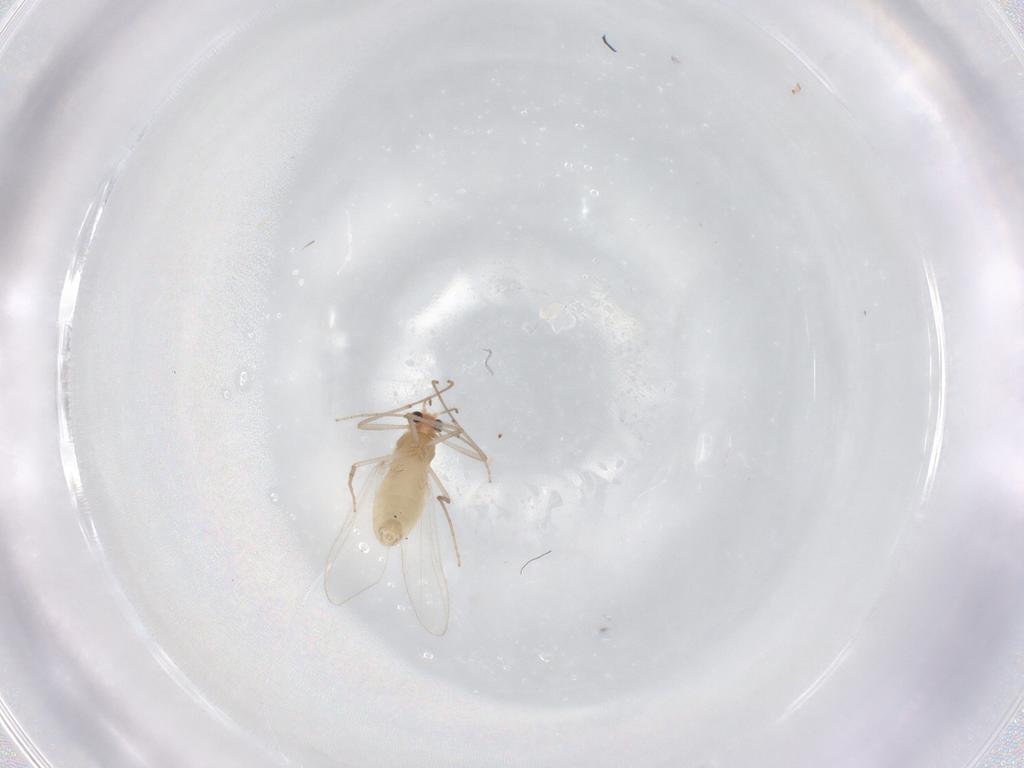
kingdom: Animalia
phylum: Arthropoda
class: Insecta
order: Diptera
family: Chironomidae
